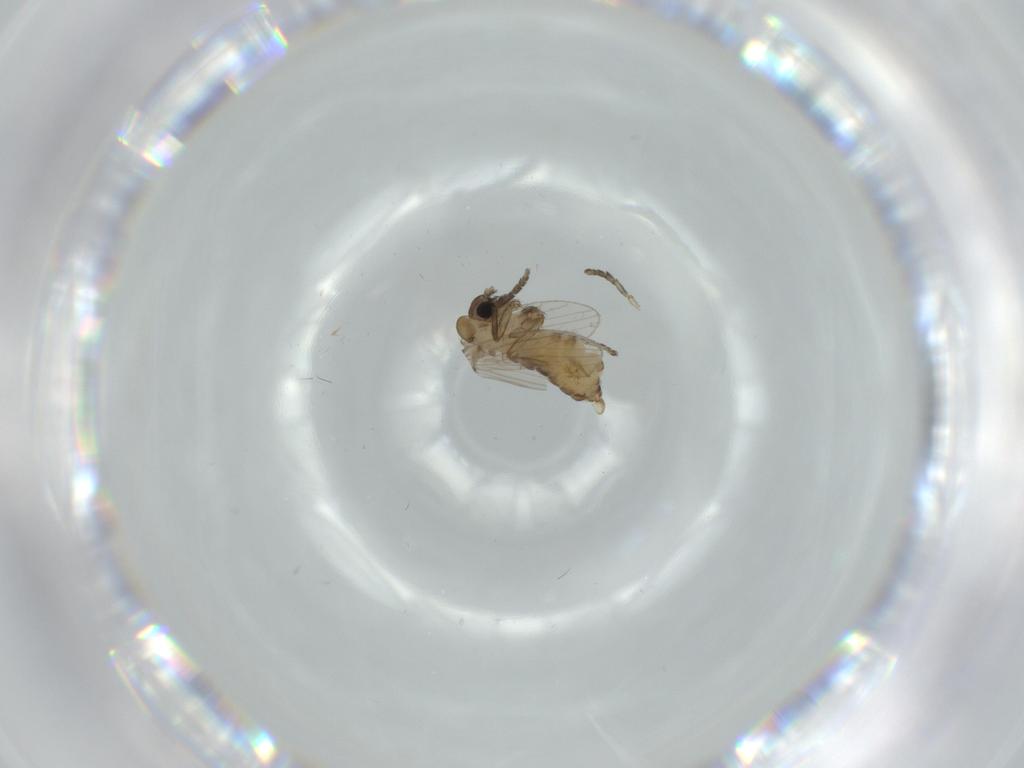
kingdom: Animalia
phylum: Arthropoda
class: Insecta
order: Diptera
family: Psychodidae
